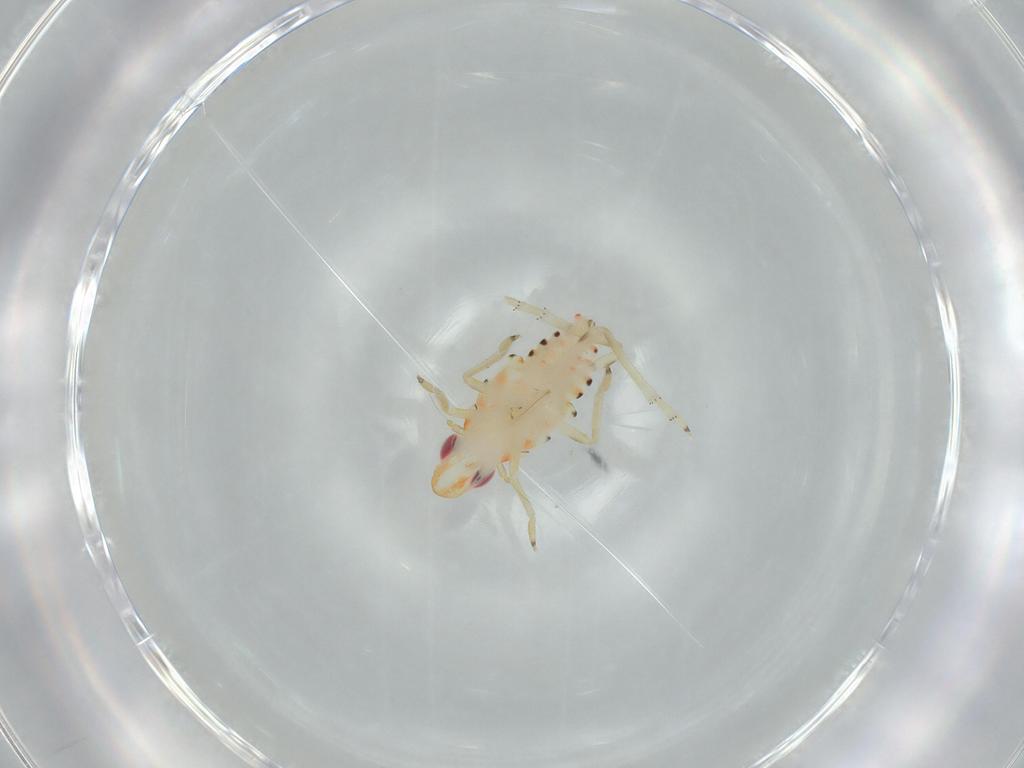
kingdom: Animalia
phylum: Arthropoda
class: Insecta
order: Hemiptera
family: Tropiduchidae
